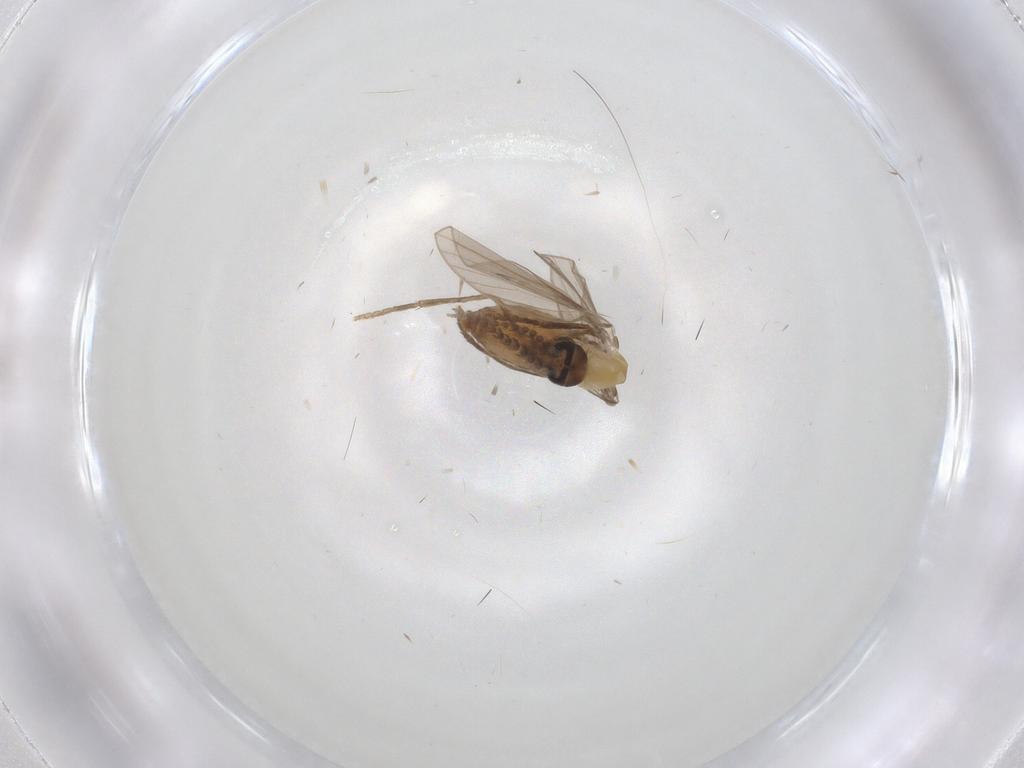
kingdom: Animalia
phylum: Arthropoda
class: Insecta
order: Diptera
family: Psychodidae
